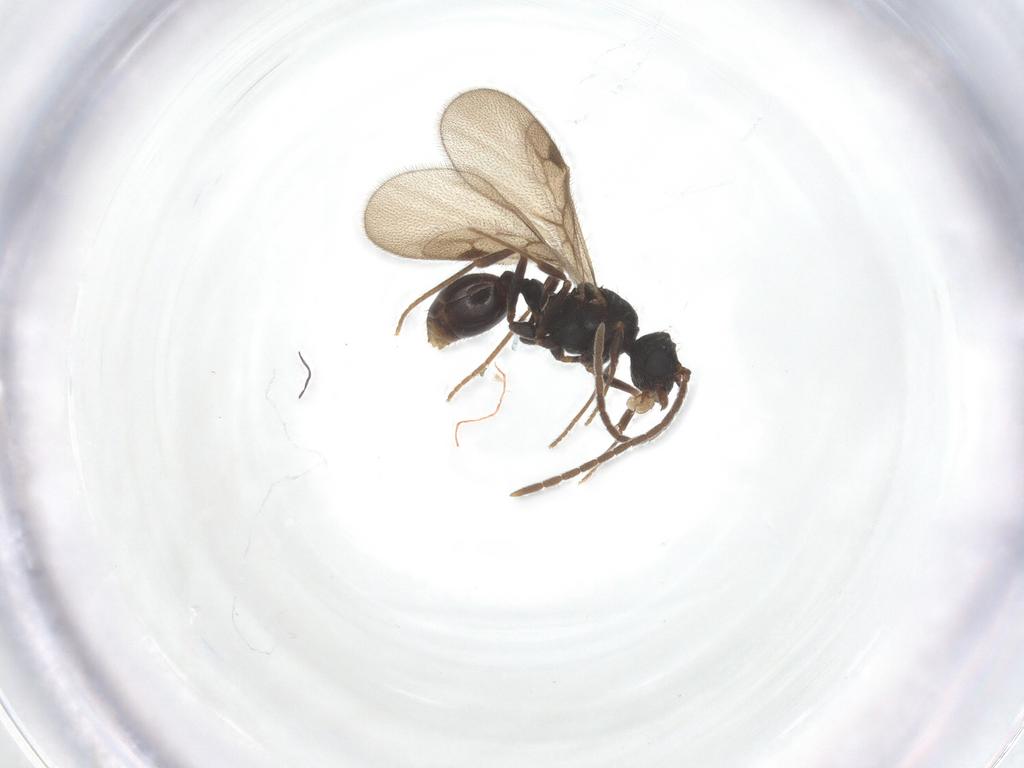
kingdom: Animalia
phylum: Arthropoda
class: Insecta
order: Hymenoptera
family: Formicidae
